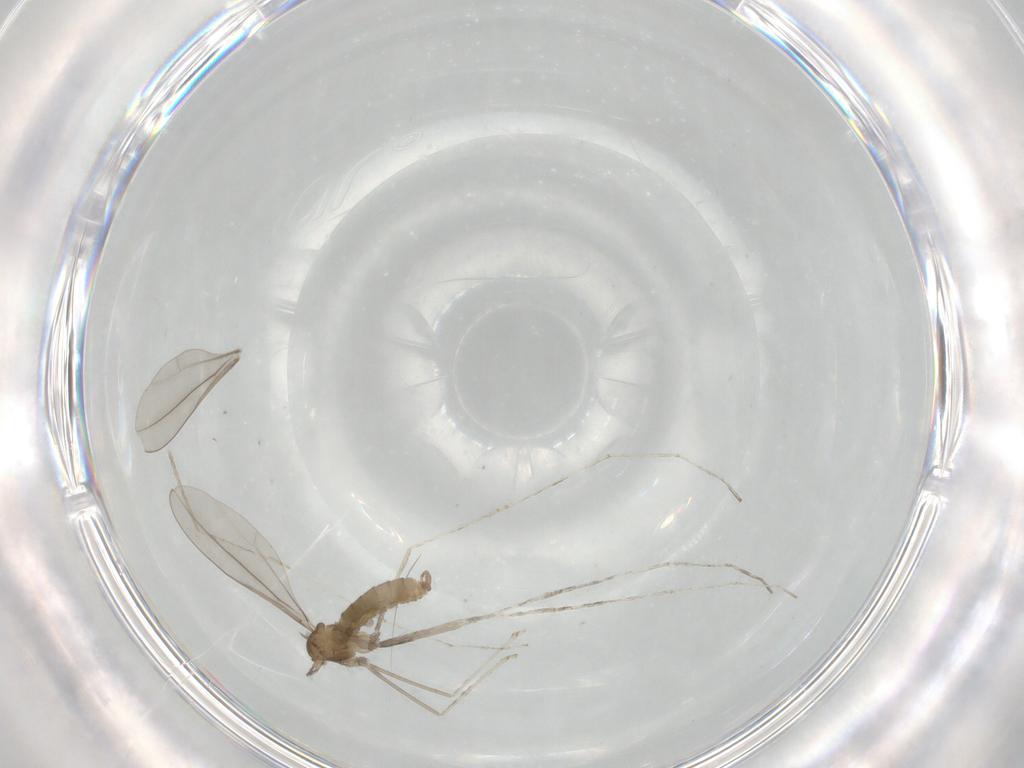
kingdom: Animalia
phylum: Arthropoda
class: Insecta
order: Diptera
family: Cecidomyiidae
